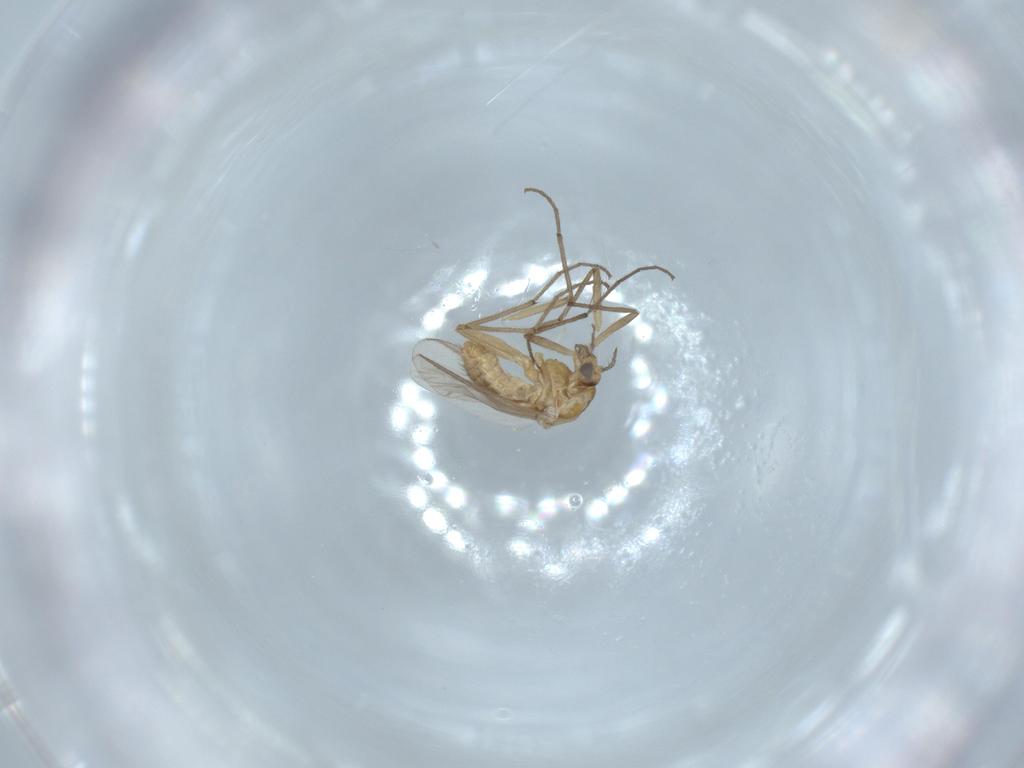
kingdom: Animalia
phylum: Arthropoda
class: Insecta
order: Diptera
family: Chironomidae
